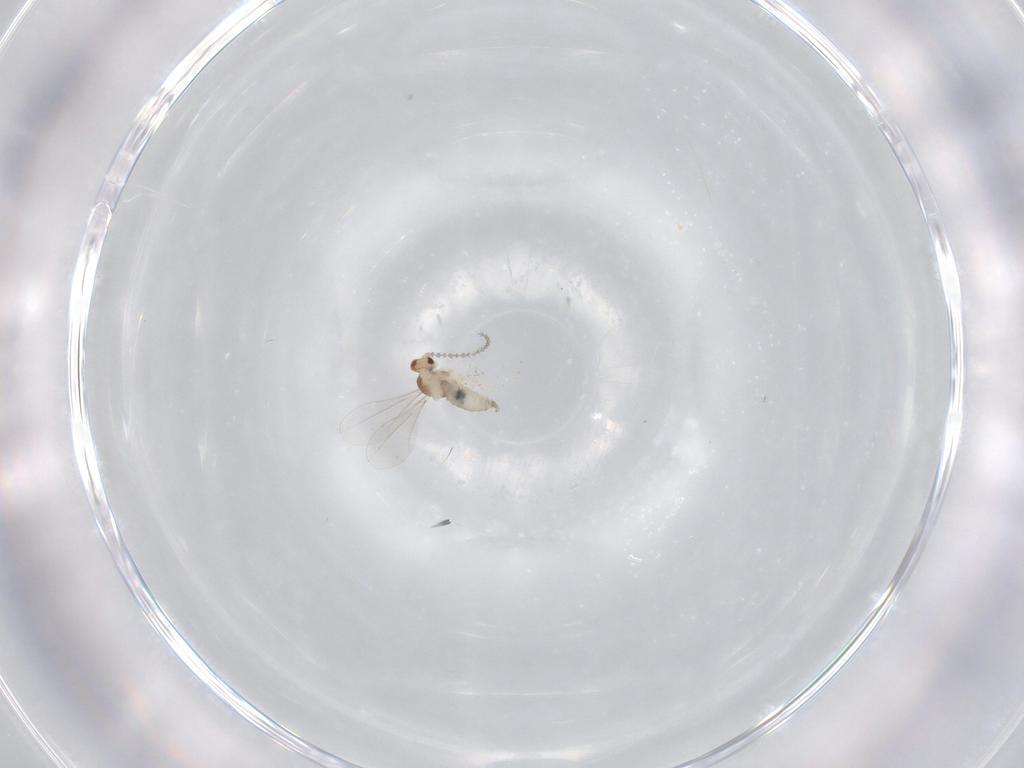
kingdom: Animalia
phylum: Arthropoda
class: Insecta
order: Diptera
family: Cecidomyiidae
